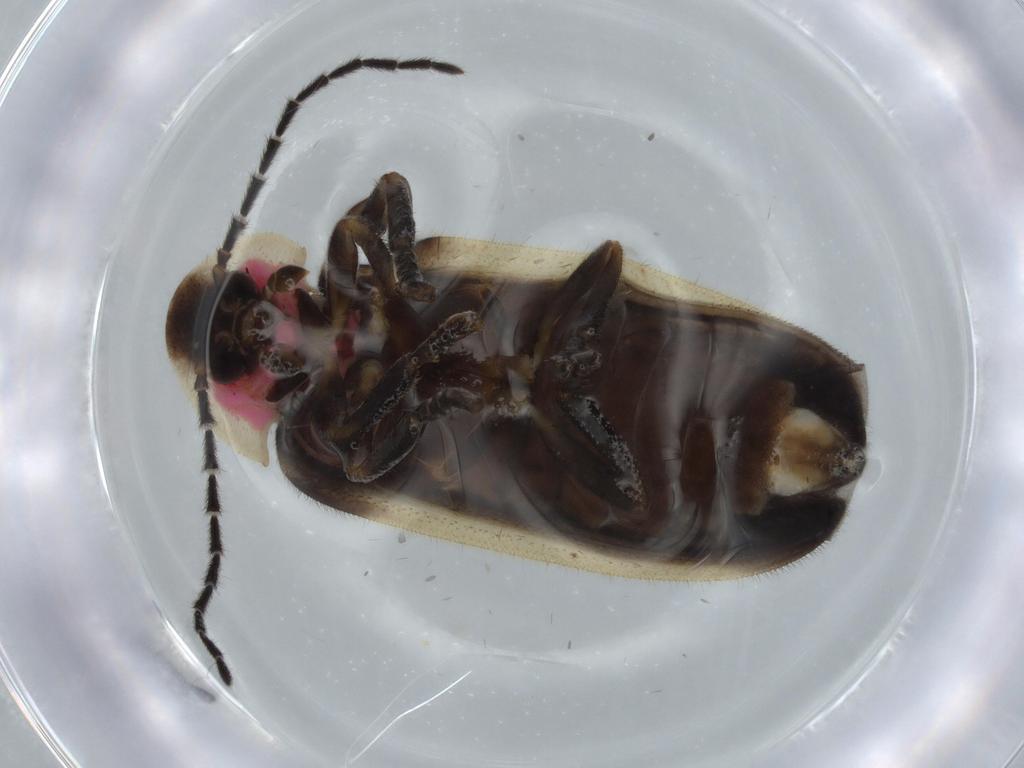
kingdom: Animalia
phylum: Arthropoda
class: Insecta
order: Coleoptera
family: Lampyridae
